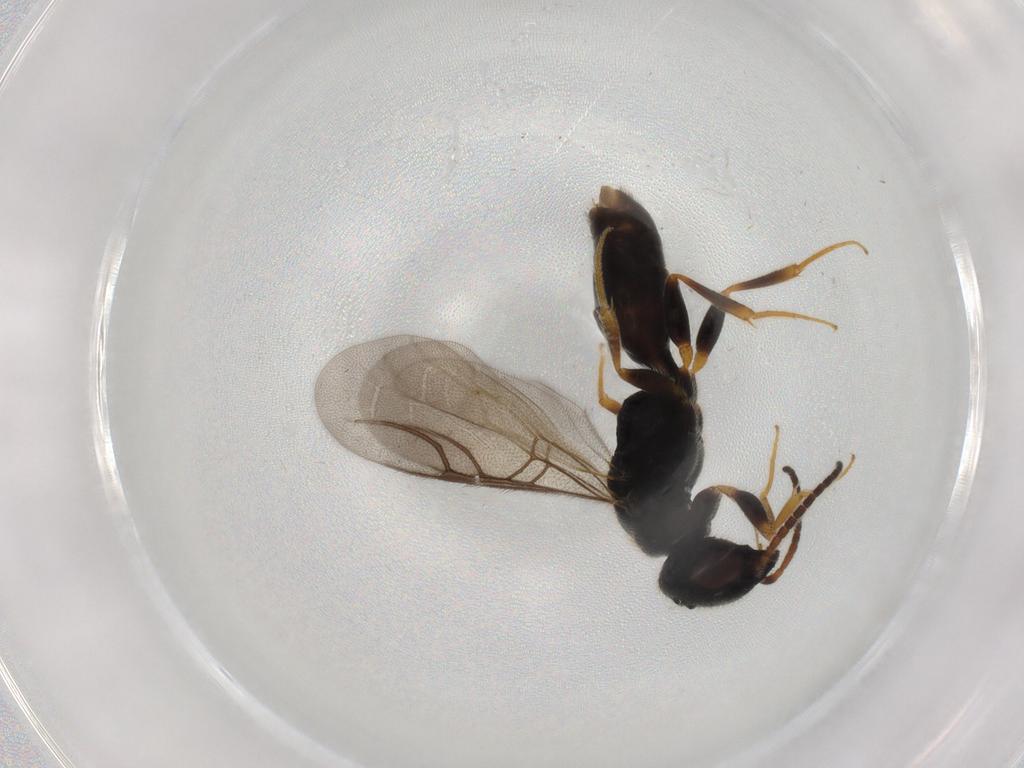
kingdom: Animalia
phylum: Arthropoda
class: Insecta
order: Hymenoptera
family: Bethylidae
